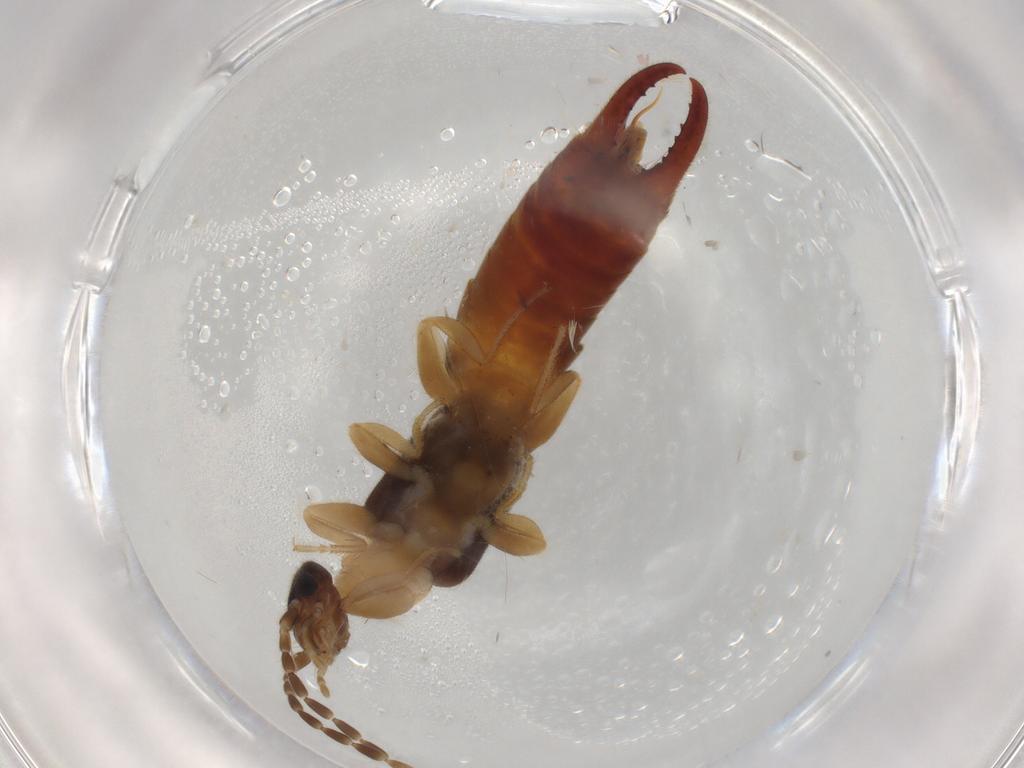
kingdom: Animalia
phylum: Arthropoda
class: Insecta
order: Dermaptera
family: Spongiphoridae
